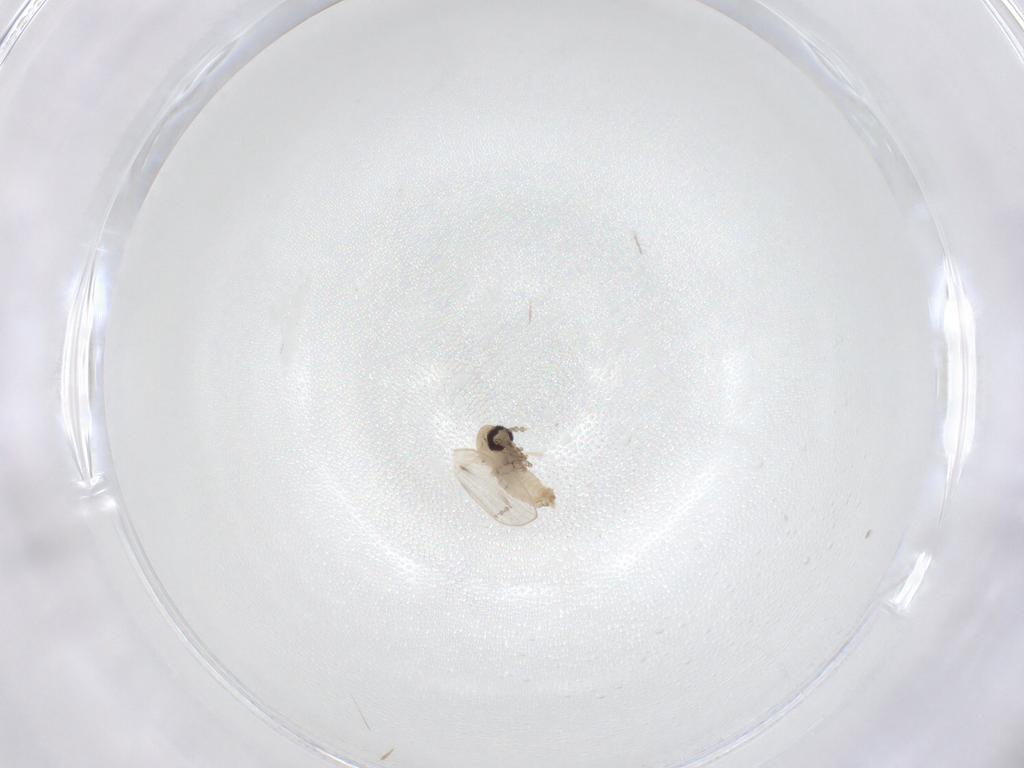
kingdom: Animalia
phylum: Arthropoda
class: Insecta
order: Diptera
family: Psychodidae
